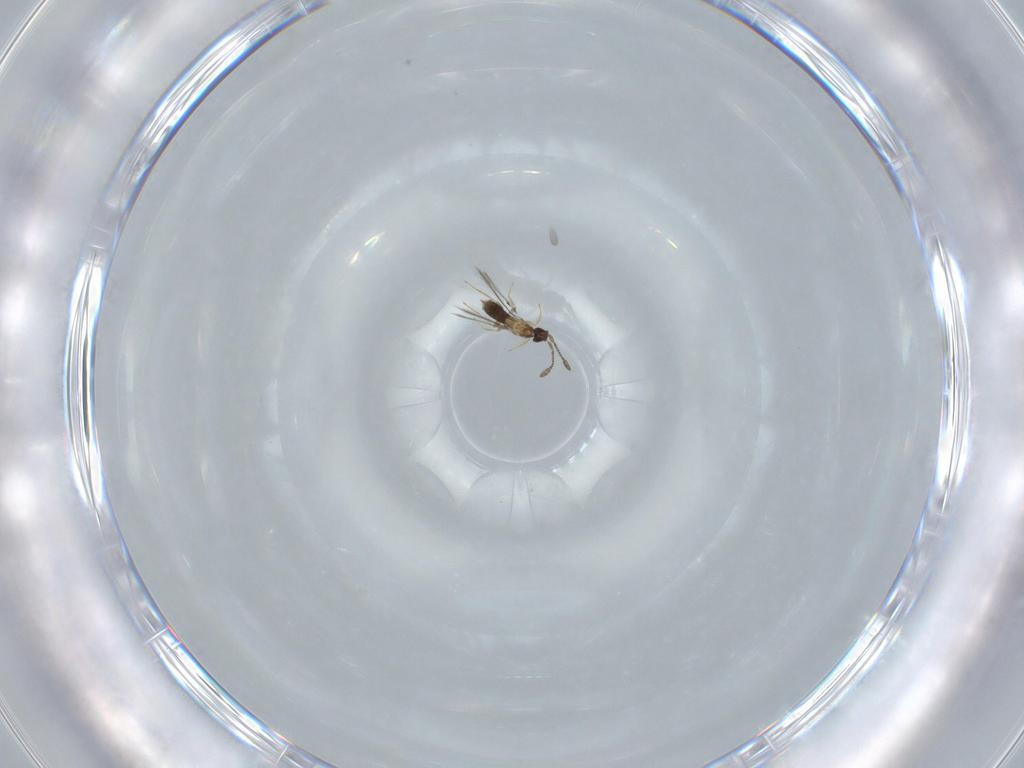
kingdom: Animalia
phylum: Arthropoda
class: Insecta
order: Hymenoptera
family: Mymaridae
